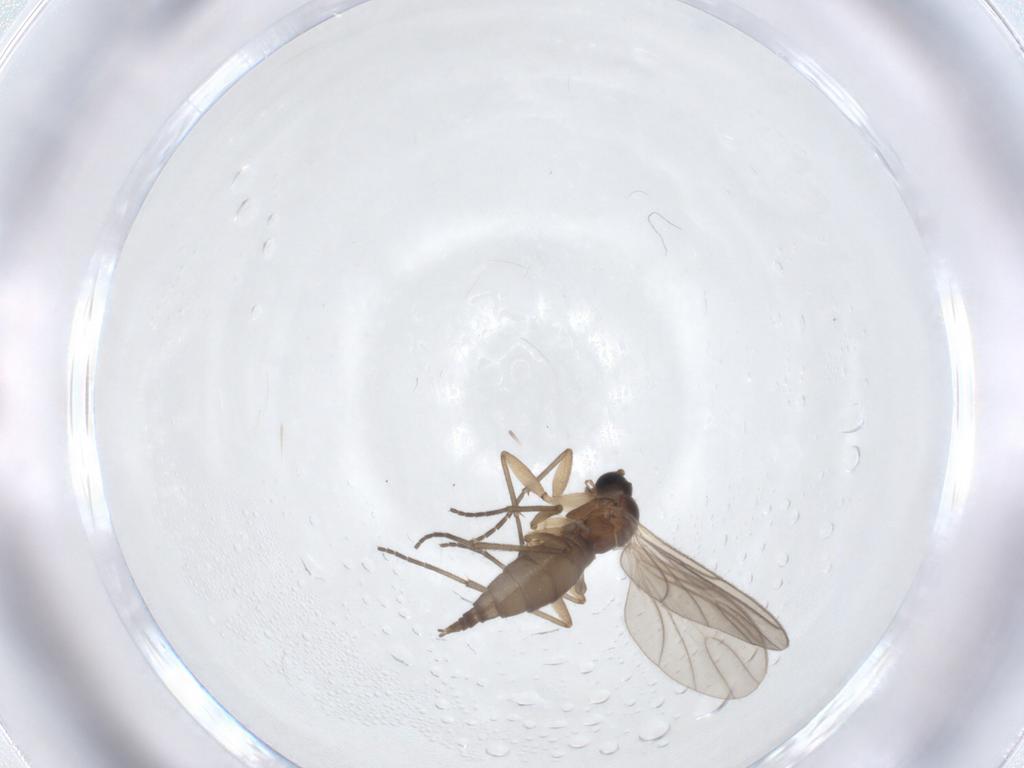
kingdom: Animalia
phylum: Arthropoda
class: Insecta
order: Diptera
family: Sciaridae
